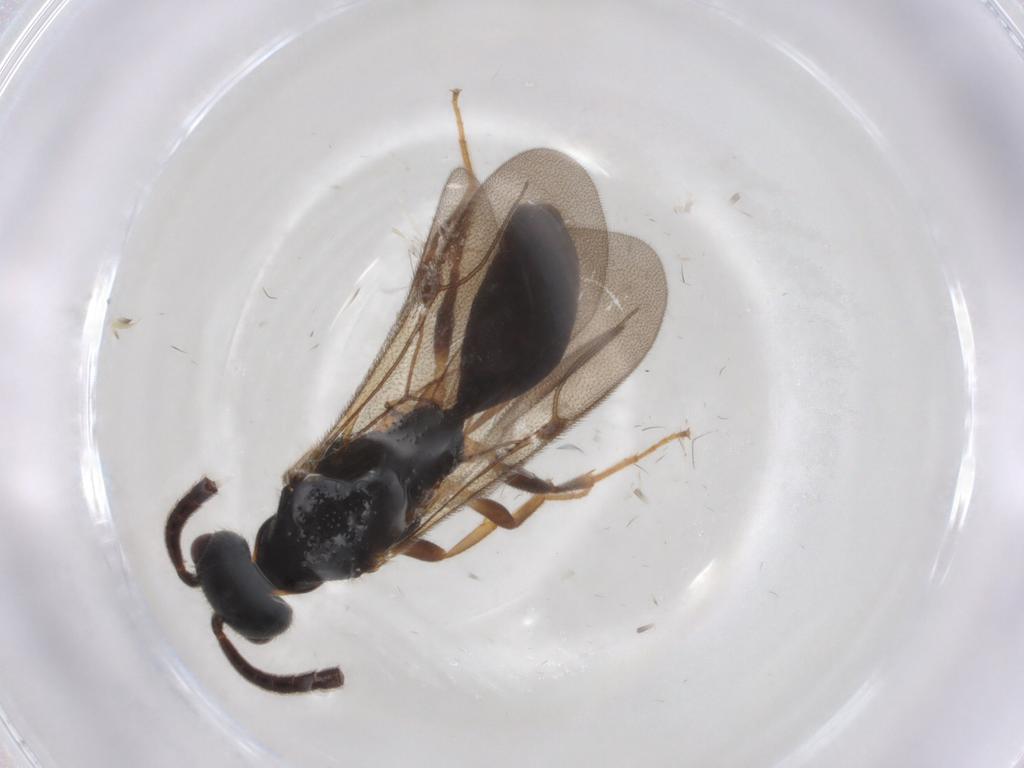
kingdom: Animalia
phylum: Arthropoda
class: Insecta
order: Hymenoptera
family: Bethylidae
